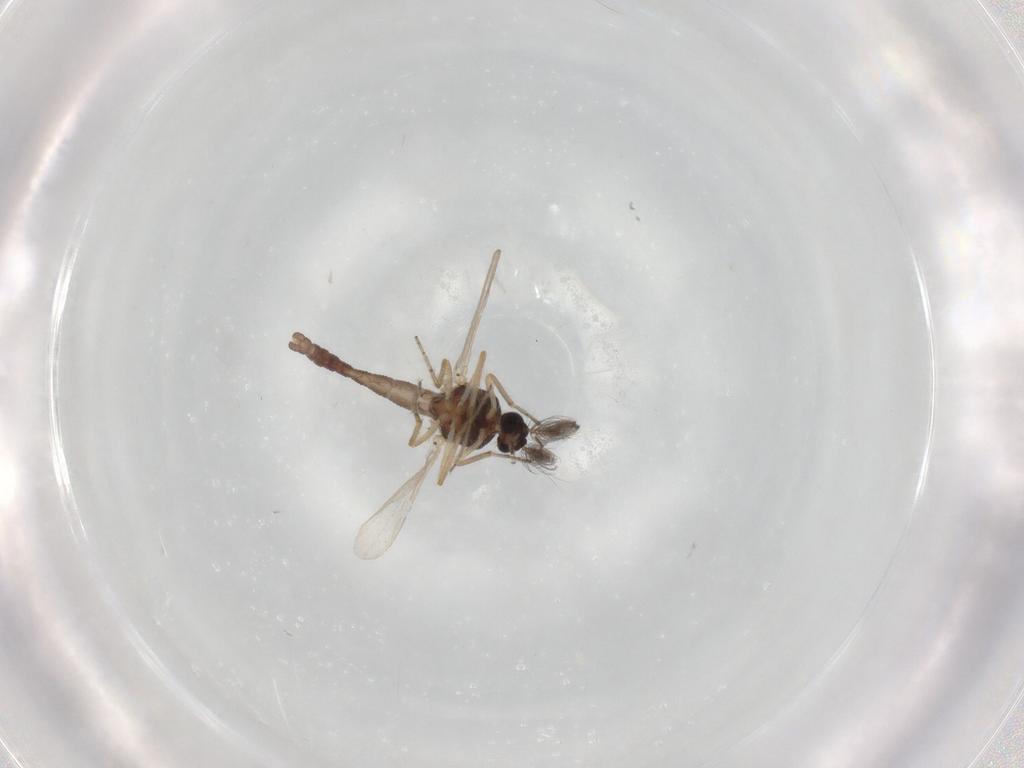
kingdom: Animalia
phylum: Arthropoda
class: Insecta
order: Diptera
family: Ceratopogonidae
